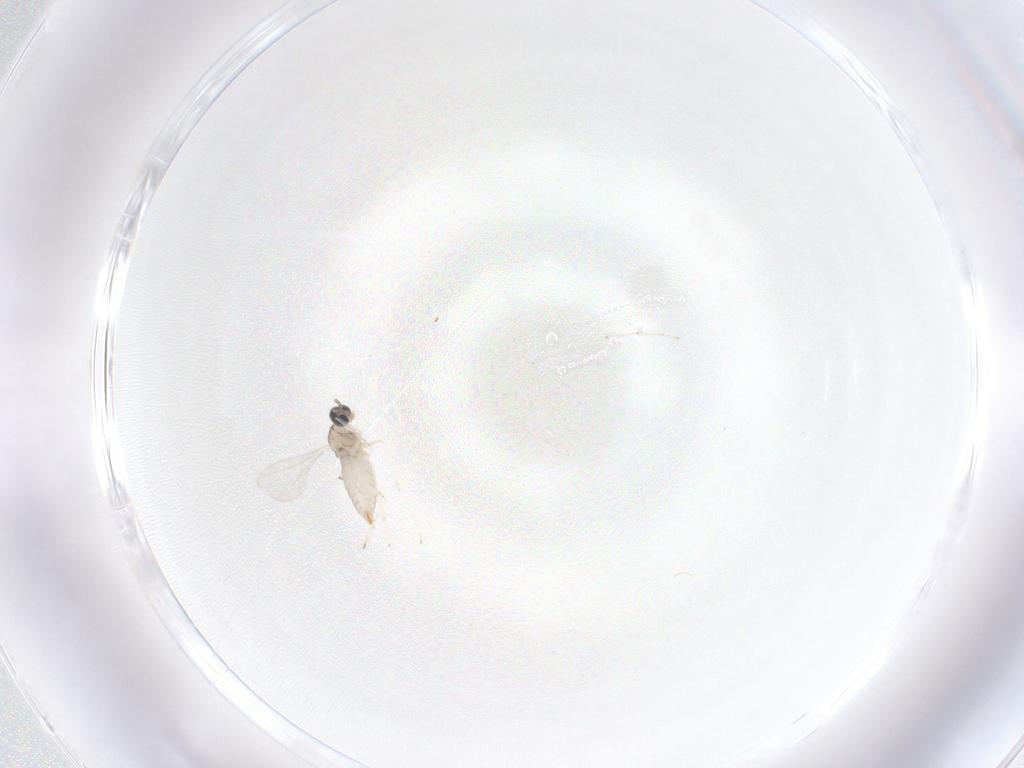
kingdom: Animalia
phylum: Arthropoda
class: Insecta
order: Diptera
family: Cecidomyiidae
